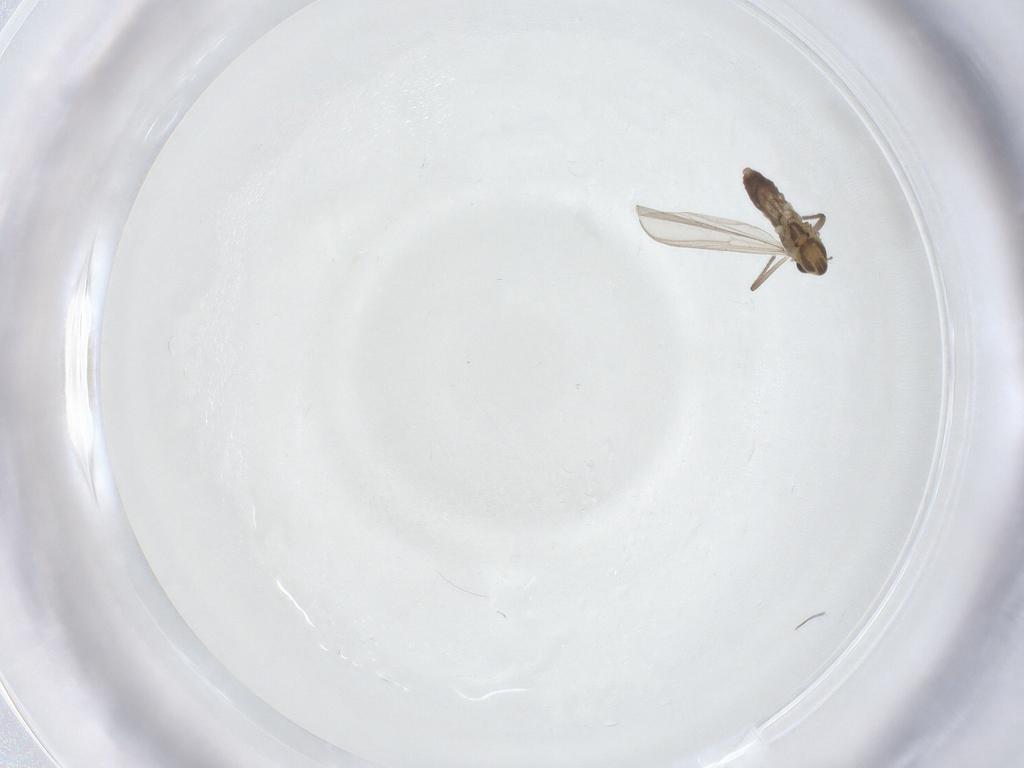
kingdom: Animalia
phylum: Arthropoda
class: Insecta
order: Diptera
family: Chironomidae
